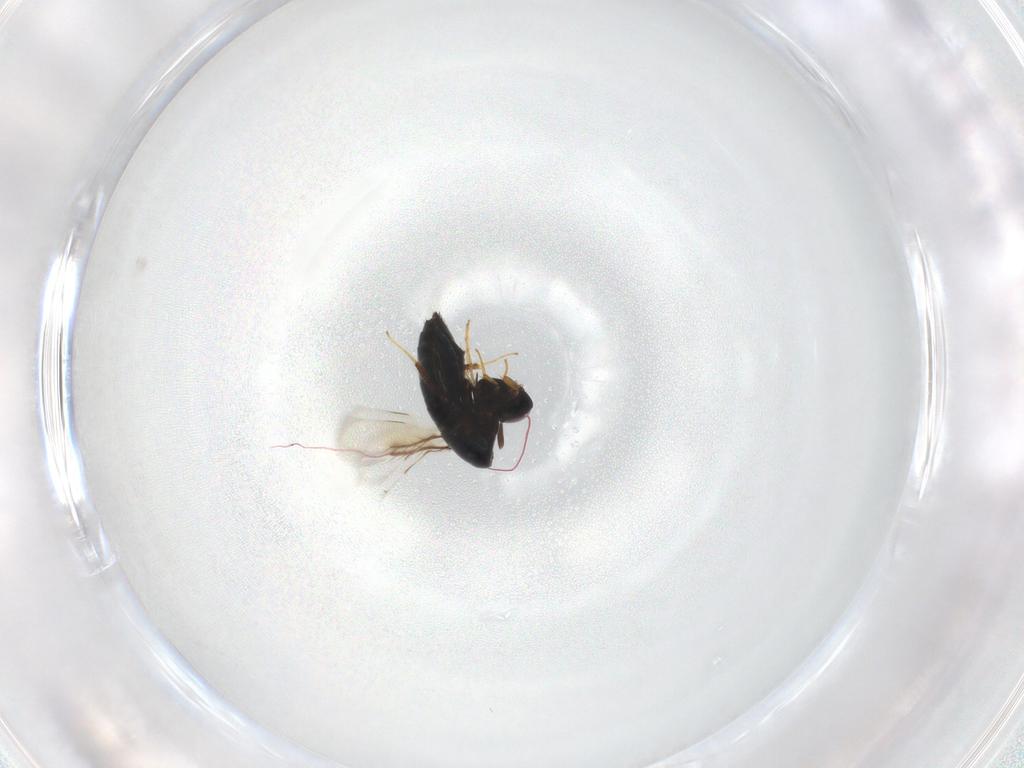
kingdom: Animalia
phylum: Arthropoda
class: Insecta
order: Hymenoptera
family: Signiphoridae
